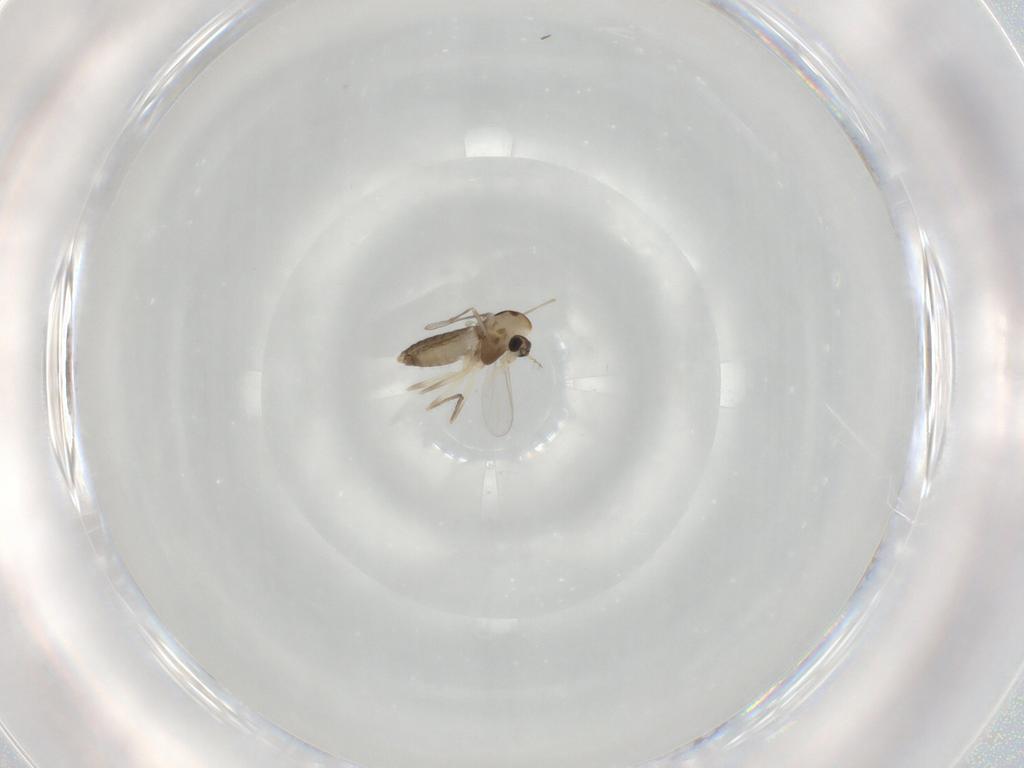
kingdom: Animalia
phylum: Arthropoda
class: Insecta
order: Diptera
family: Chironomidae
